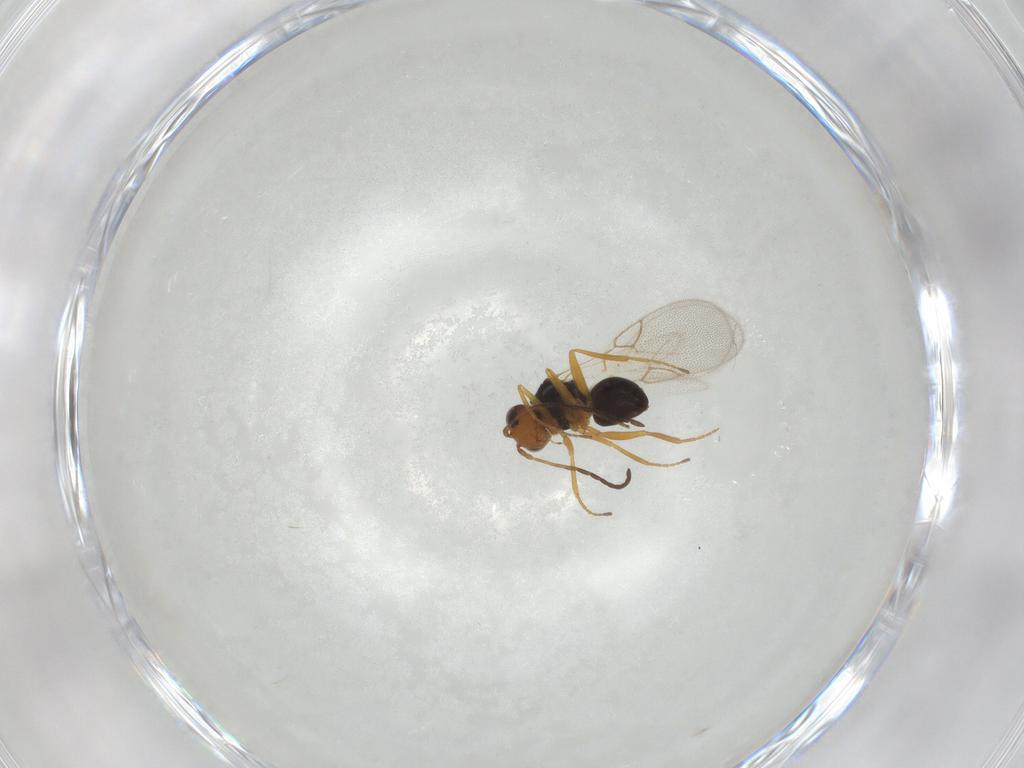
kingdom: Animalia
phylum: Arthropoda
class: Insecta
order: Hymenoptera
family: Figitidae
